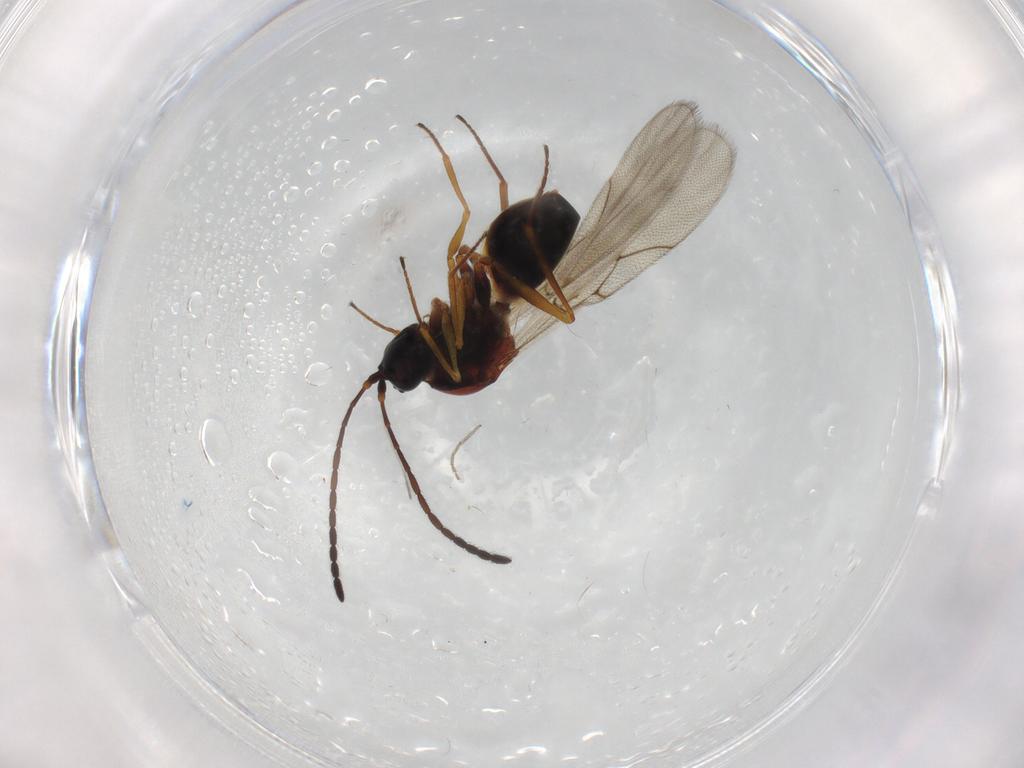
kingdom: Animalia
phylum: Arthropoda
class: Insecta
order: Hymenoptera
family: Figitidae
